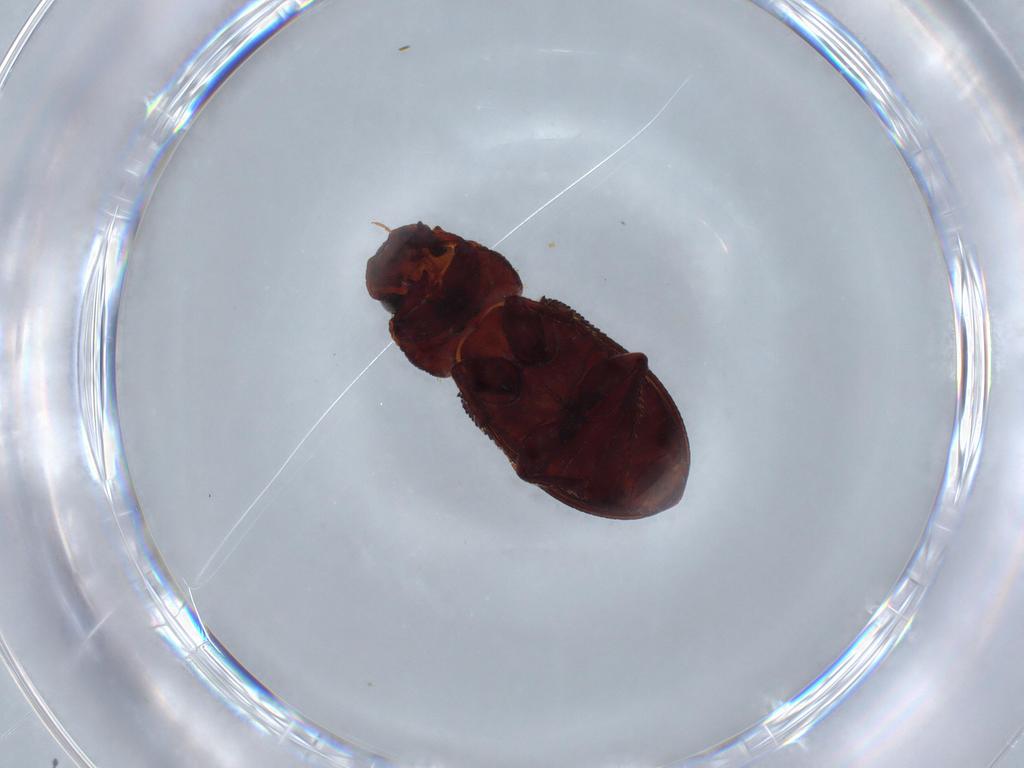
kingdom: Animalia
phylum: Arthropoda
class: Insecta
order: Coleoptera
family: Scarabaeidae
